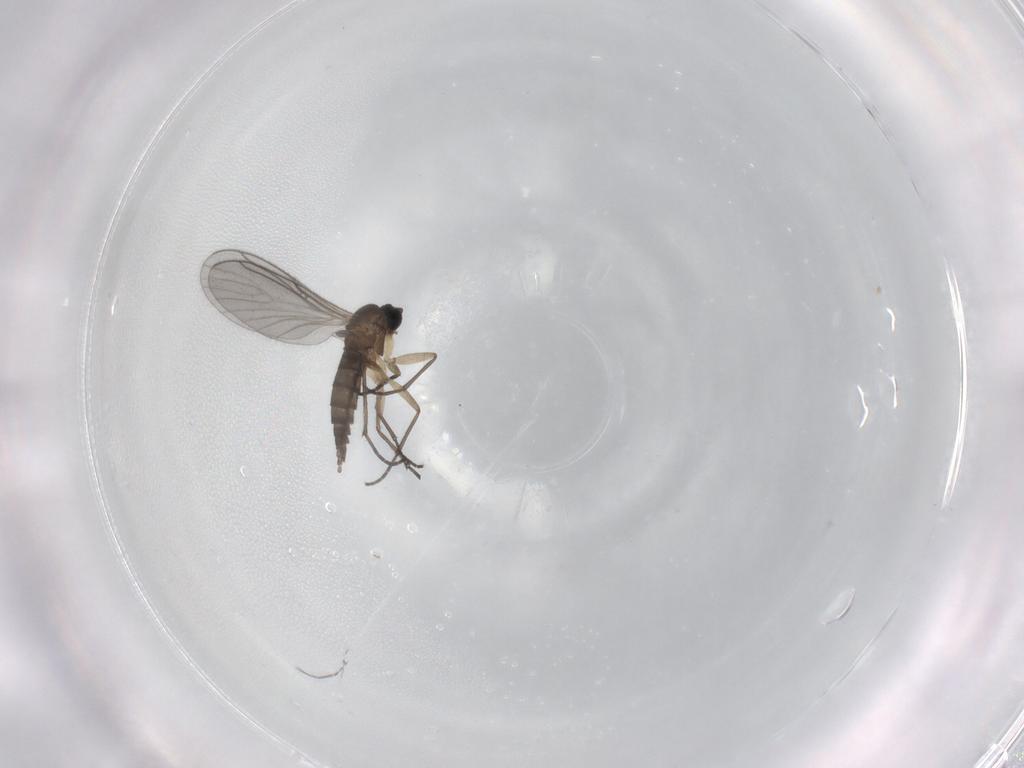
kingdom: Animalia
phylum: Arthropoda
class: Insecta
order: Diptera
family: Sciaridae
